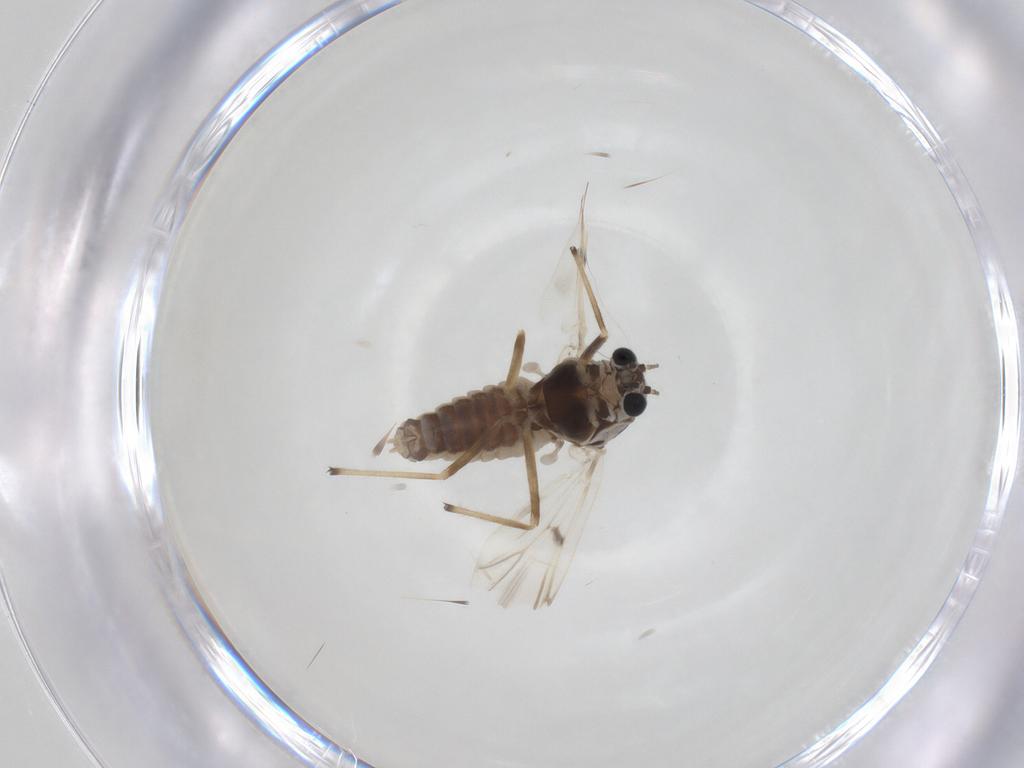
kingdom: Animalia
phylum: Arthropoda
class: Insecta
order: Diptera
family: Chironomidae
